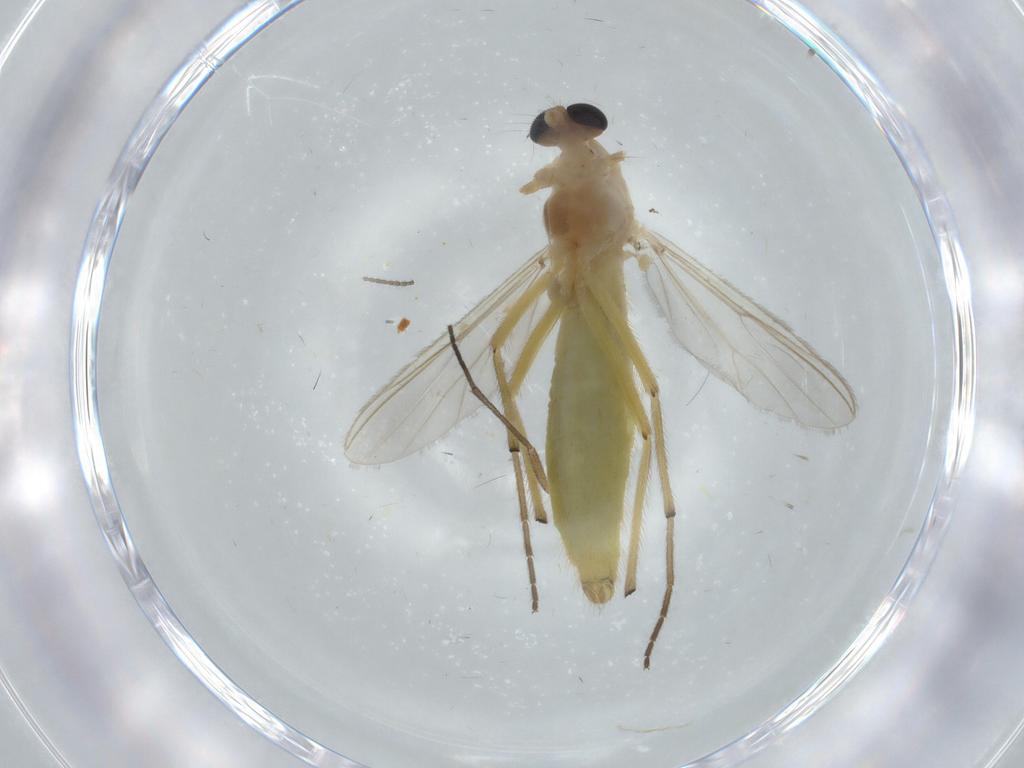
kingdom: Animalia
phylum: Arthropoda
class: Insecta
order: Diptera
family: Chironomidae
